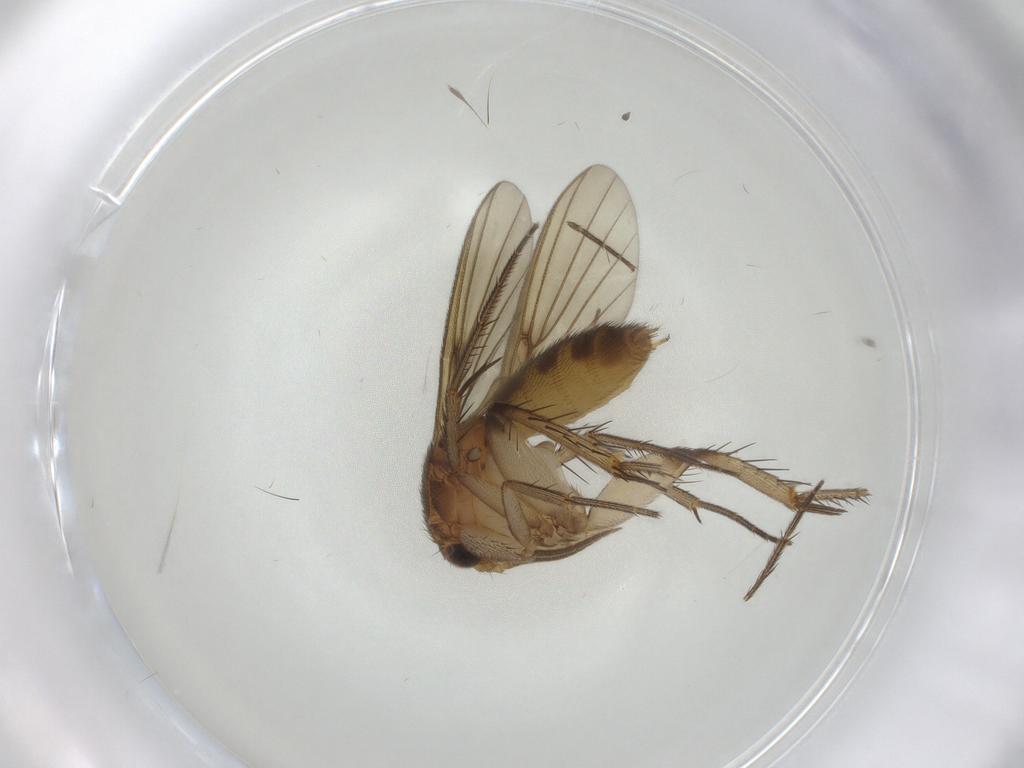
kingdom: Animalia
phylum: Arthropoda
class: Insecta
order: Diptera
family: Mycetophilidae
